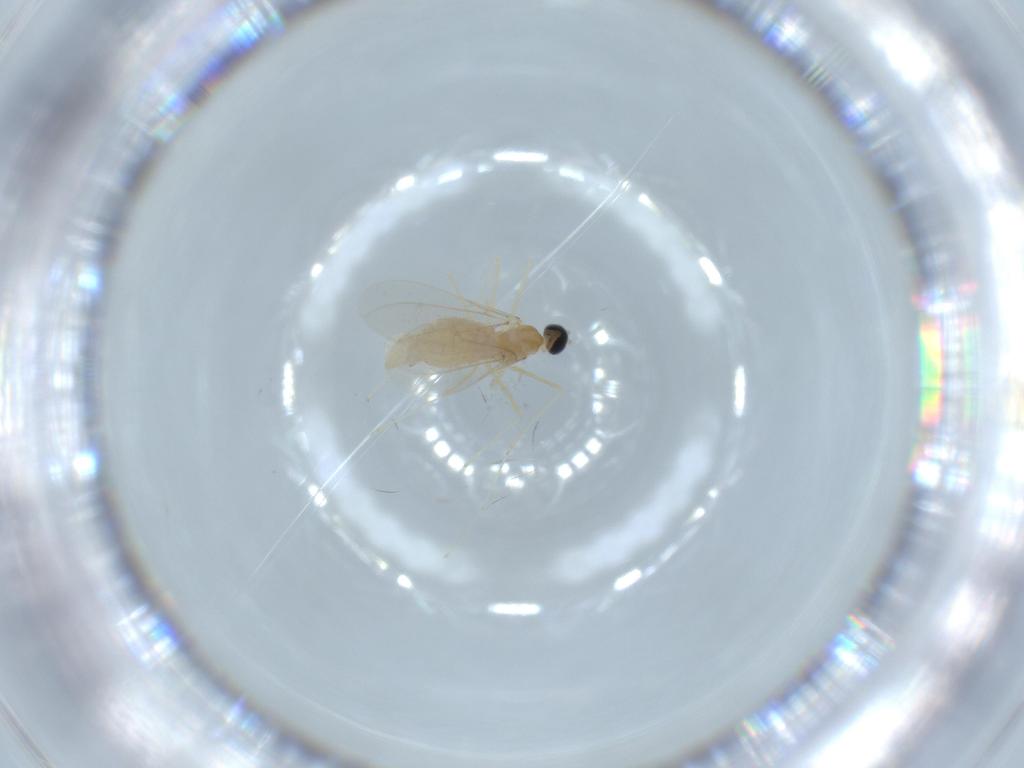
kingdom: Animalia
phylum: Arthropoda
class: Insecta
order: Diptera
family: Cecidomyiidae
